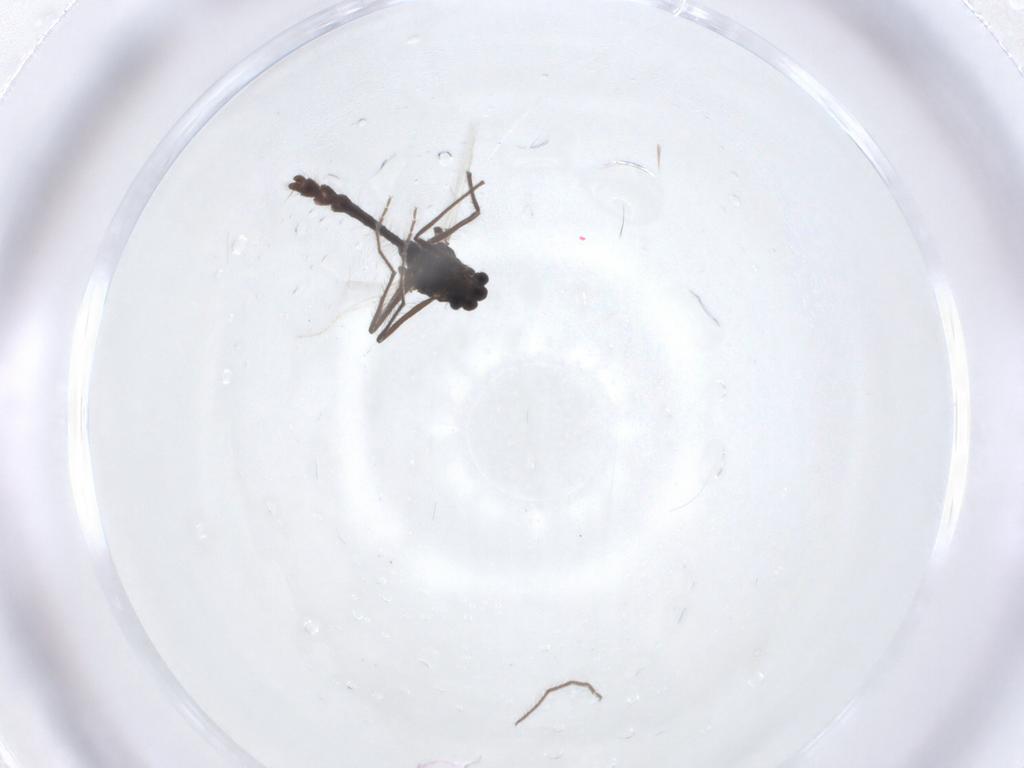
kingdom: Animalia
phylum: Arthropoda
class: Insecta
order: Diptera
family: Chironomidae
